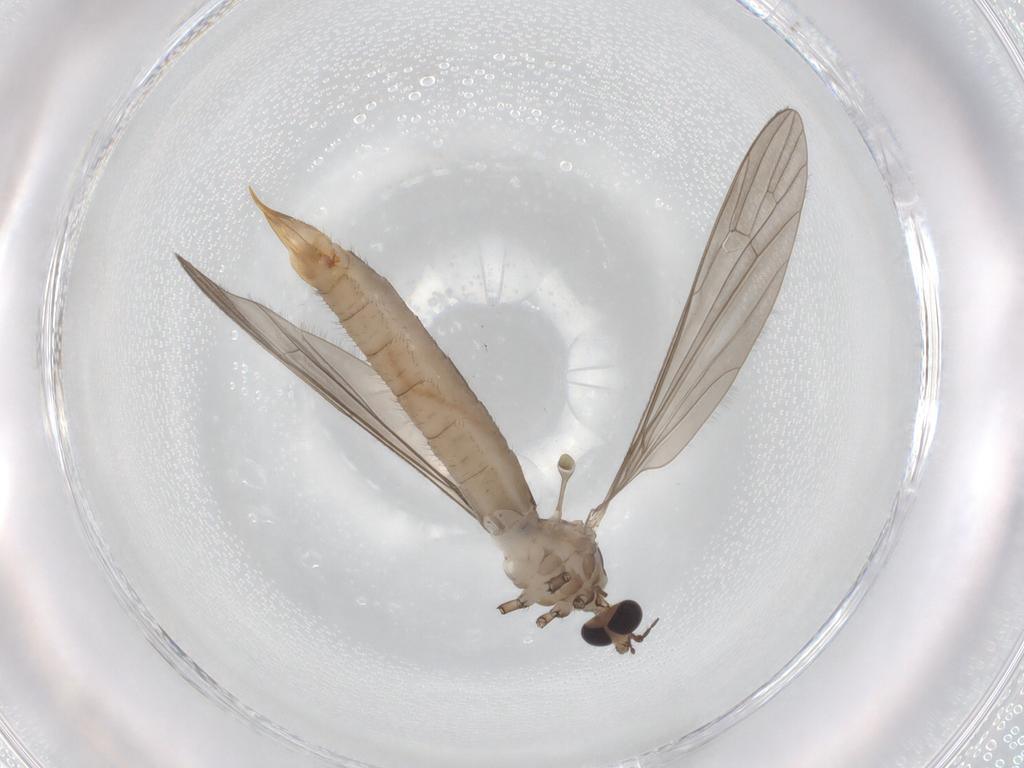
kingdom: Animalia
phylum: Arthropoda
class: Insecta
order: Diptera
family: Limoniidae
